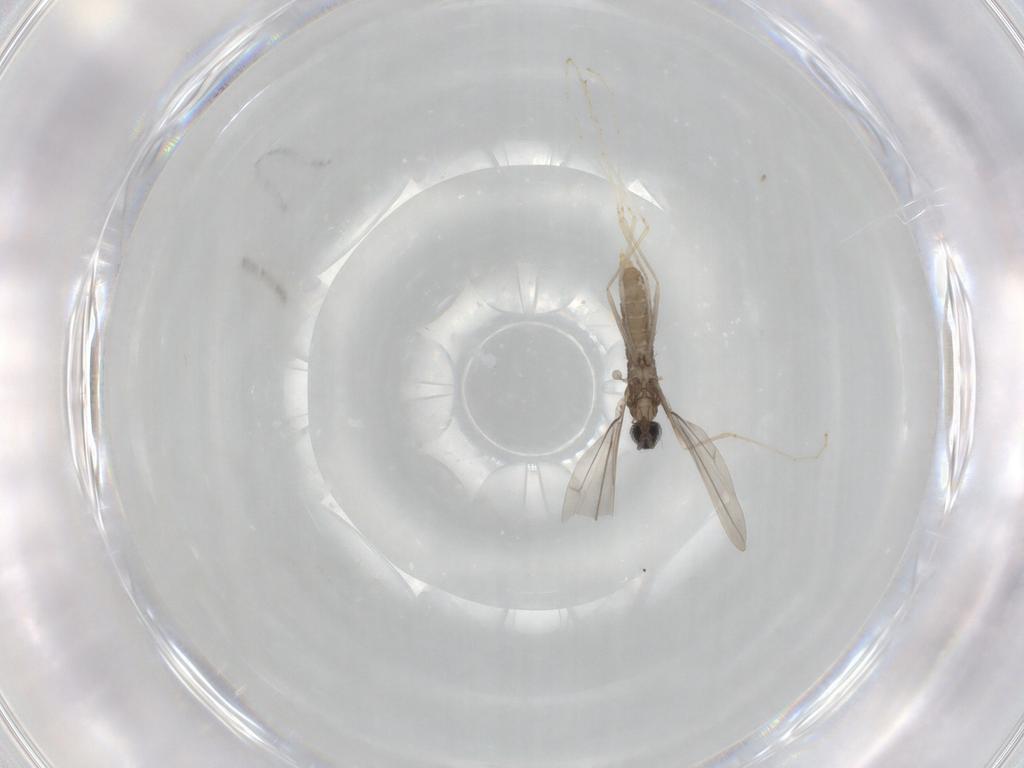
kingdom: Animalia
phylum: Arthropoda
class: Insecta
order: Diptera
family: Cecidomyiidae
